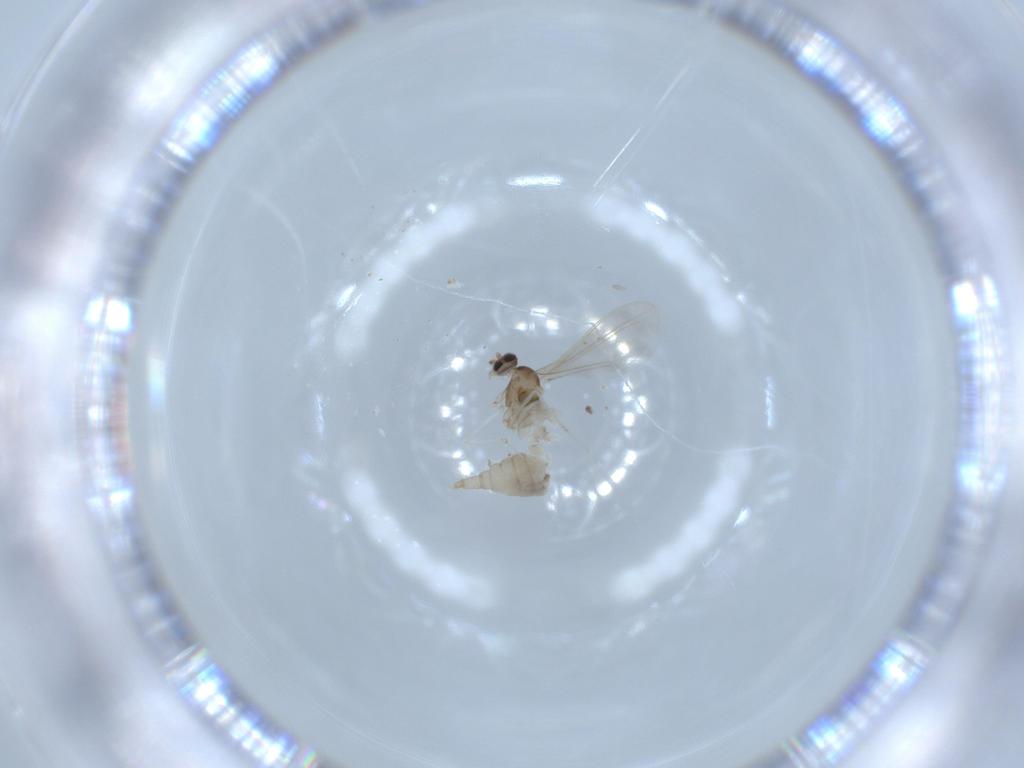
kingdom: Animalia
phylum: Arthropoda
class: Insecta
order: Diptera
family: Cecidomyiidae
